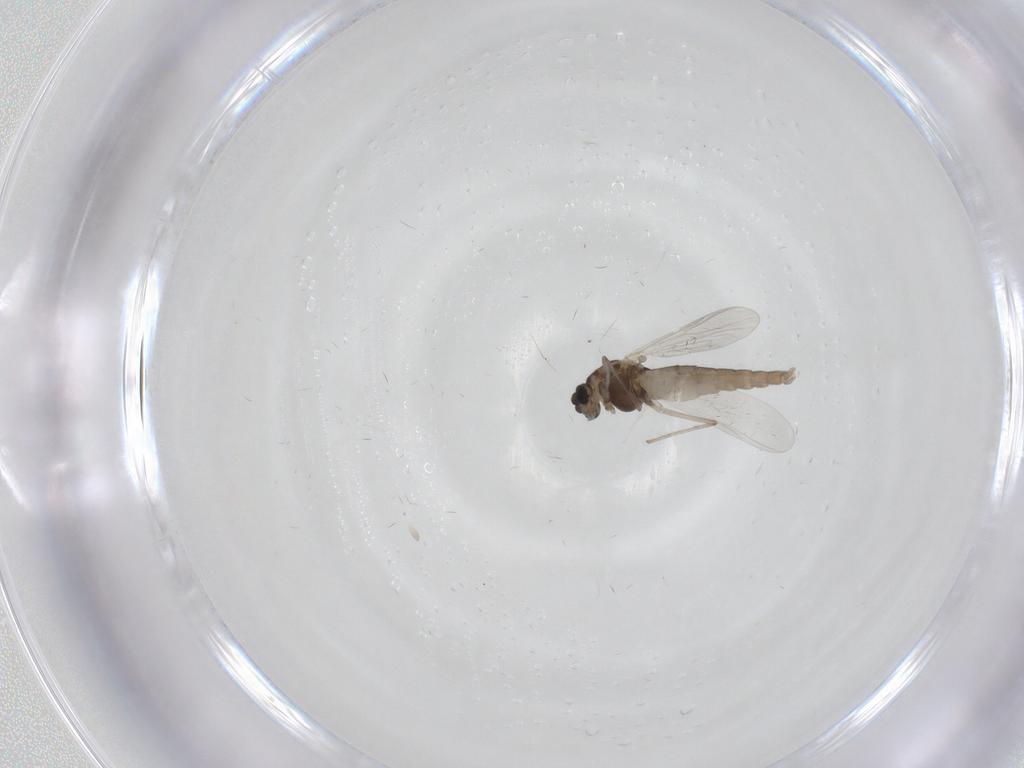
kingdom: Animalia
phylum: Arthropoda
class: Insecta
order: Diptera
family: Chironomidae
